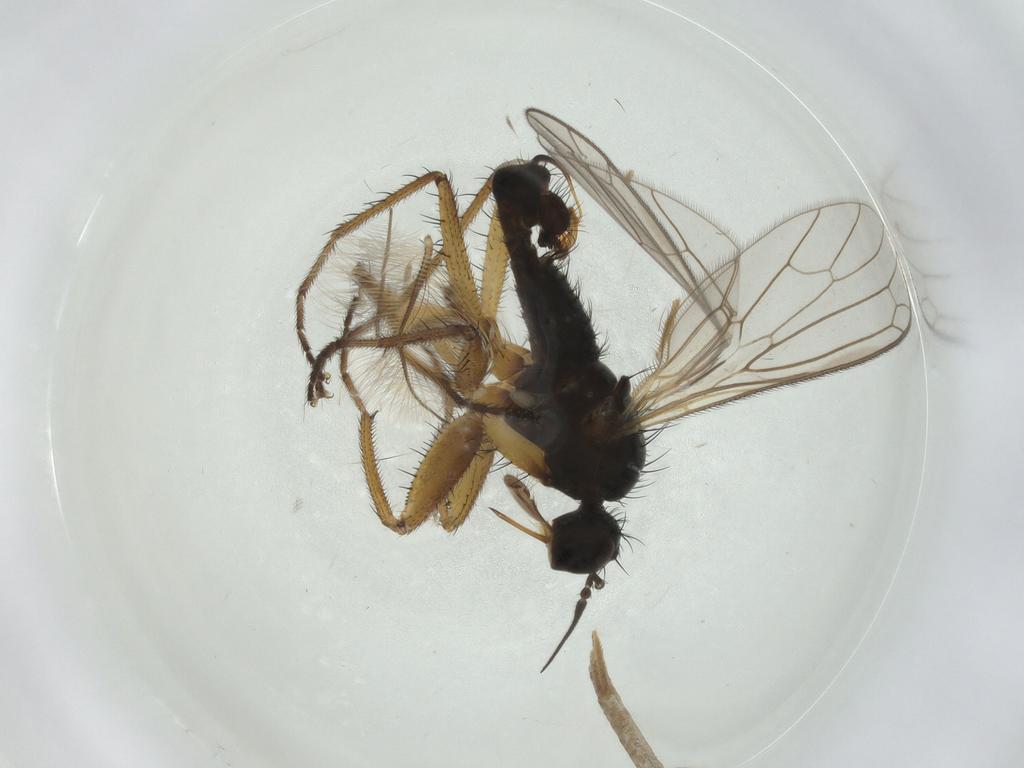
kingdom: Animalia
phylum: Arthropoda
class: Insecta
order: Diptera
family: Empididae
